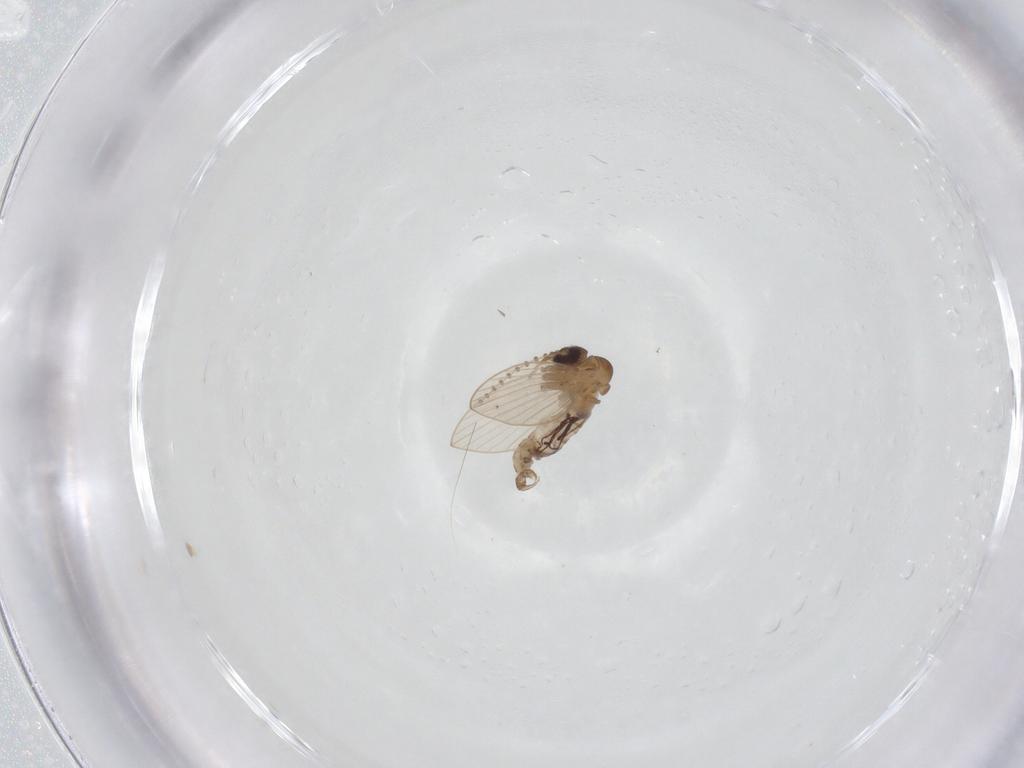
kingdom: Animalia
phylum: Arthropoda
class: Insecta
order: Diptera
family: Psychodidae
